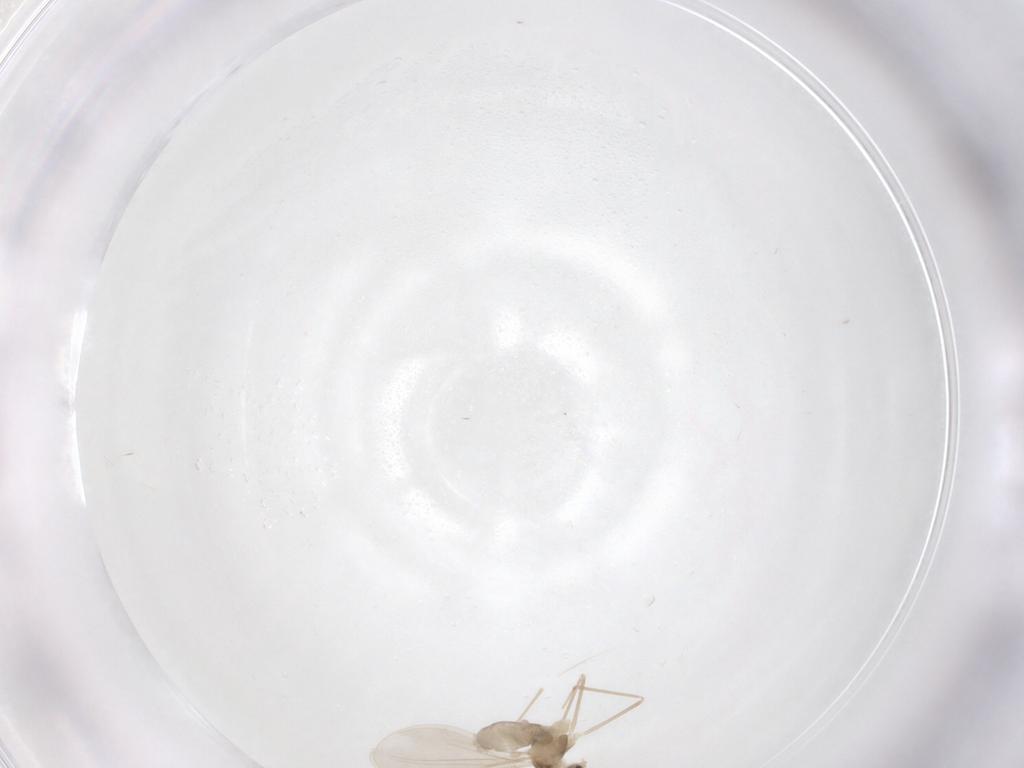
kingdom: Animalia
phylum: Arthropoda
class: Insecta
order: Diptera
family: Cecidomyiidae
